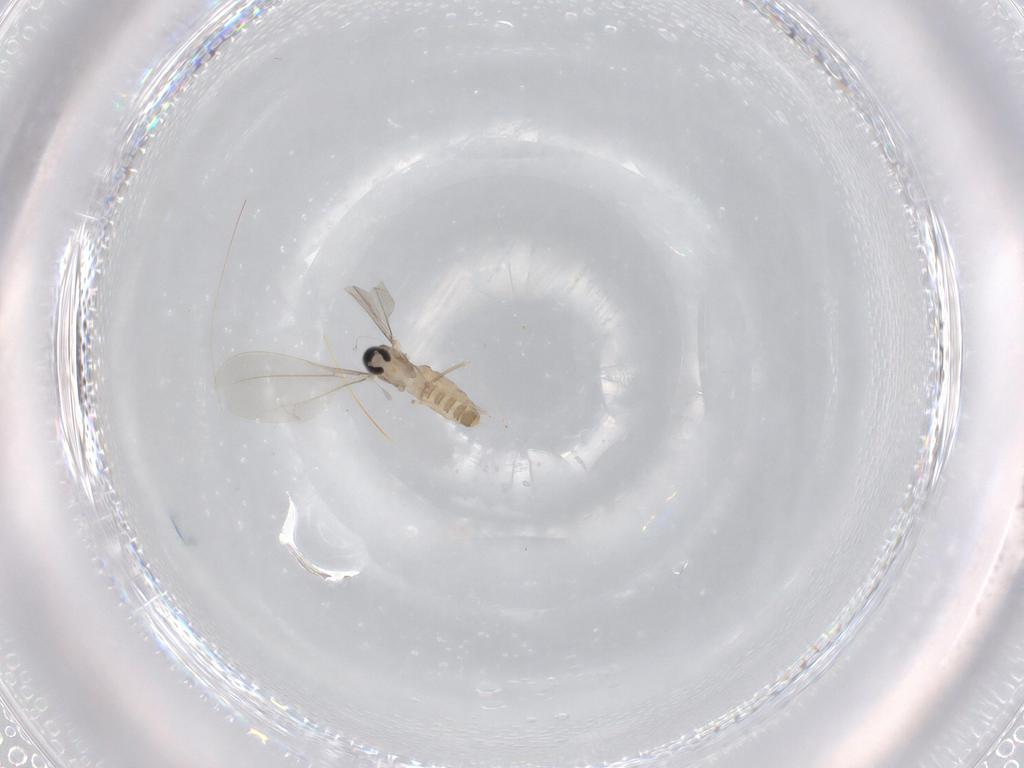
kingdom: Animalia
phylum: Arthropoda
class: Insecta
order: Diptera
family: Cecidomyiidae
